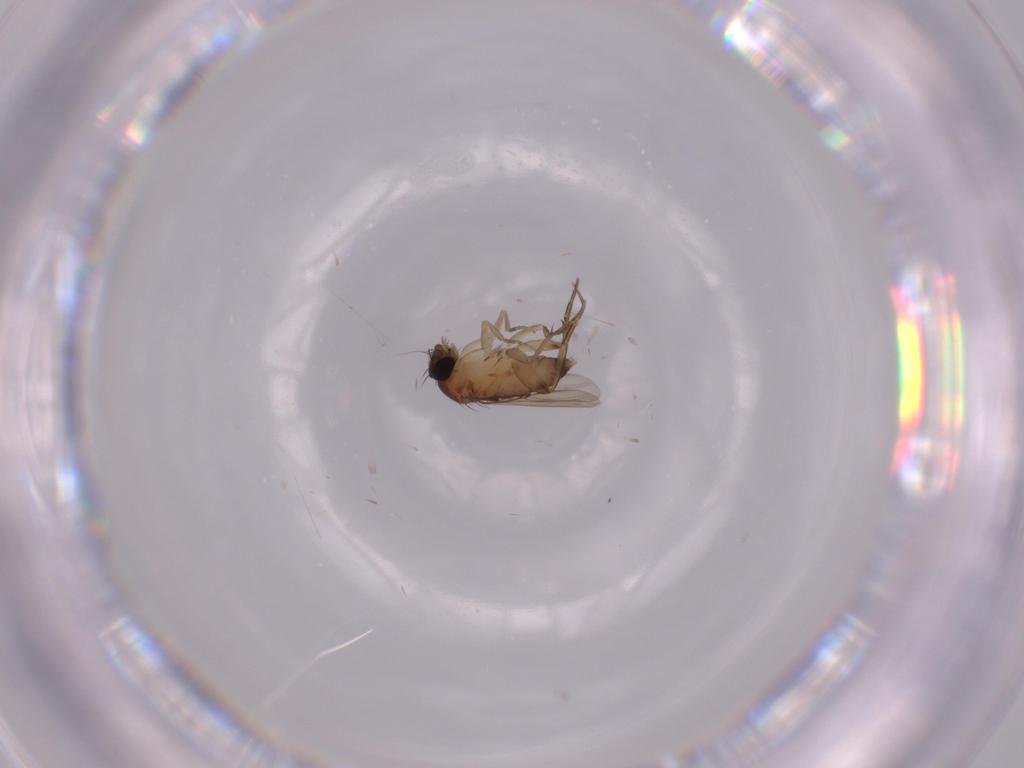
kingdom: Animalia
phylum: Arthropoda
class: Insecta
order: Diptera
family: Phoridae
